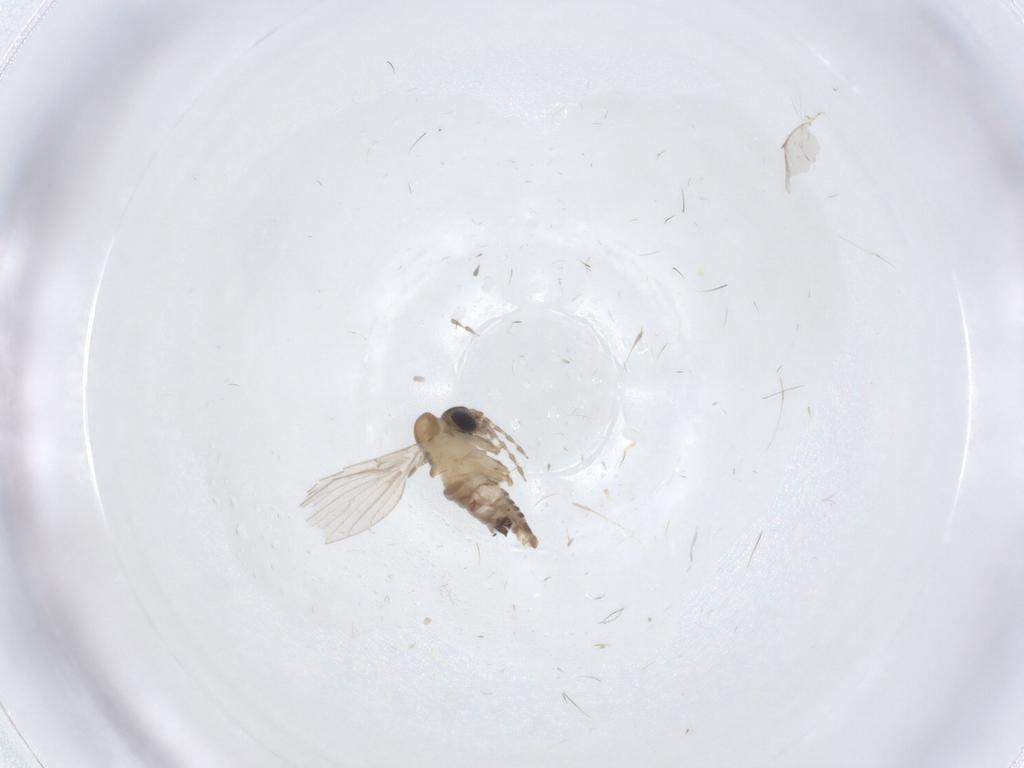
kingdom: Animalia
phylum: Arthropoda
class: Insecta
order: Diptera
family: Psychodidae
